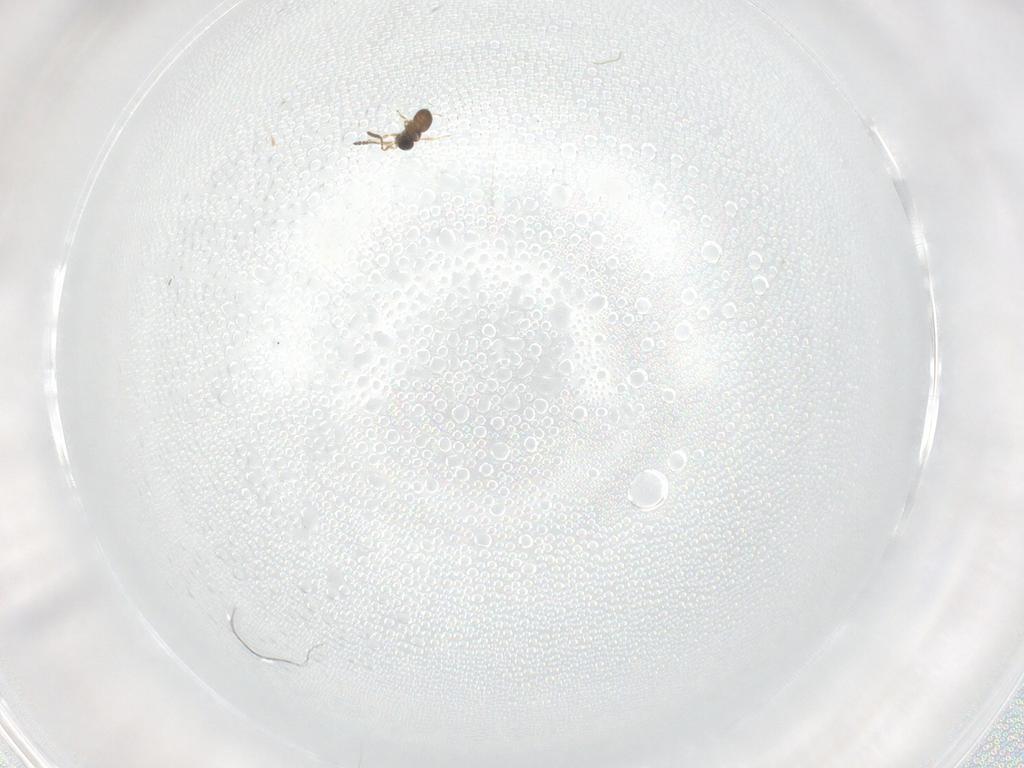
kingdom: Animalia
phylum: Arthropoda
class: Insecta
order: Hymenoptera
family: Scelionidae
